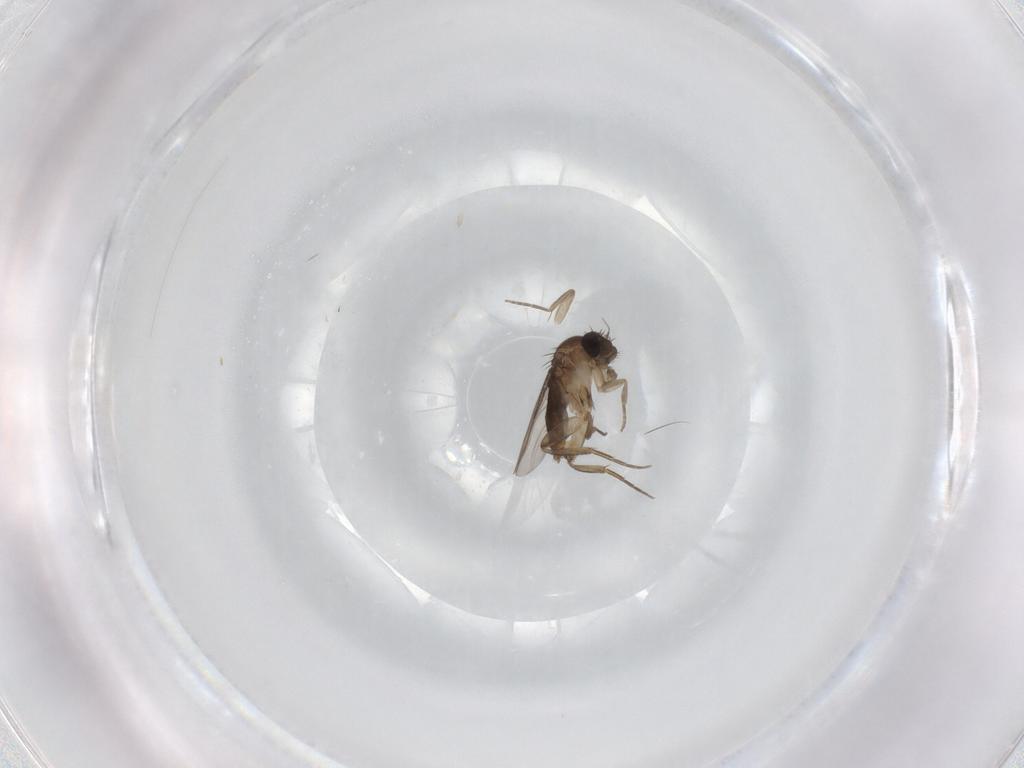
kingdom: Animalia
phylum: Arthropoda
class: Insecta
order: Diptera
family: Phoridae
